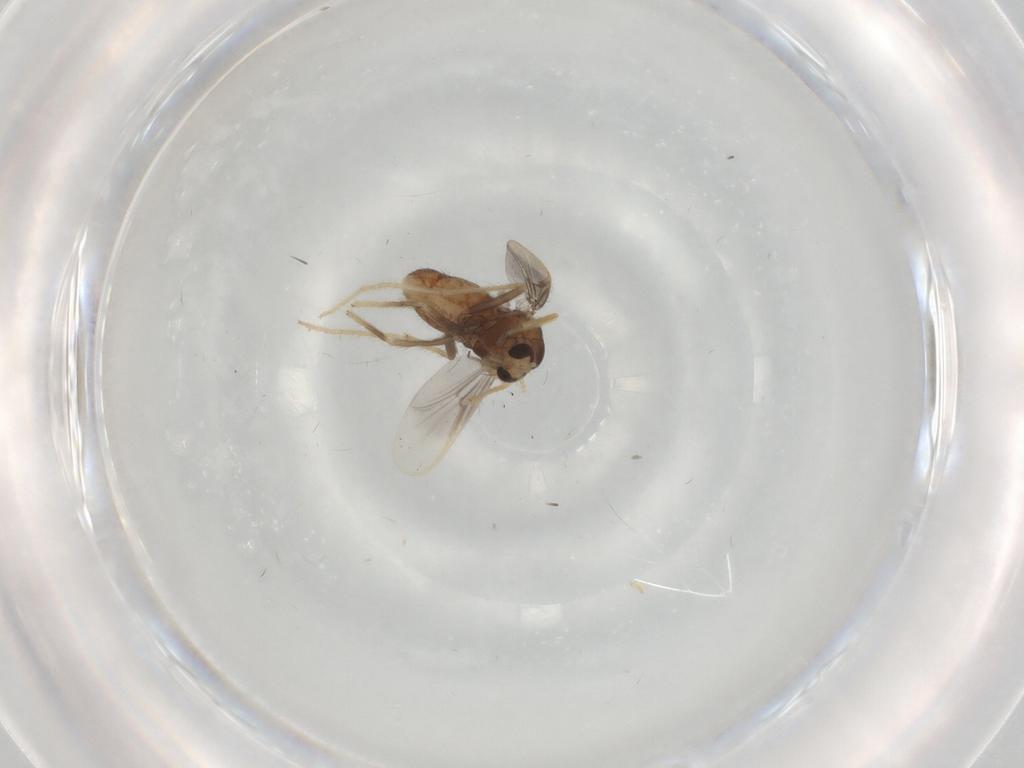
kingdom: Animalia
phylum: Arthropoda
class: Insecta
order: Diptera
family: Chironomidae
